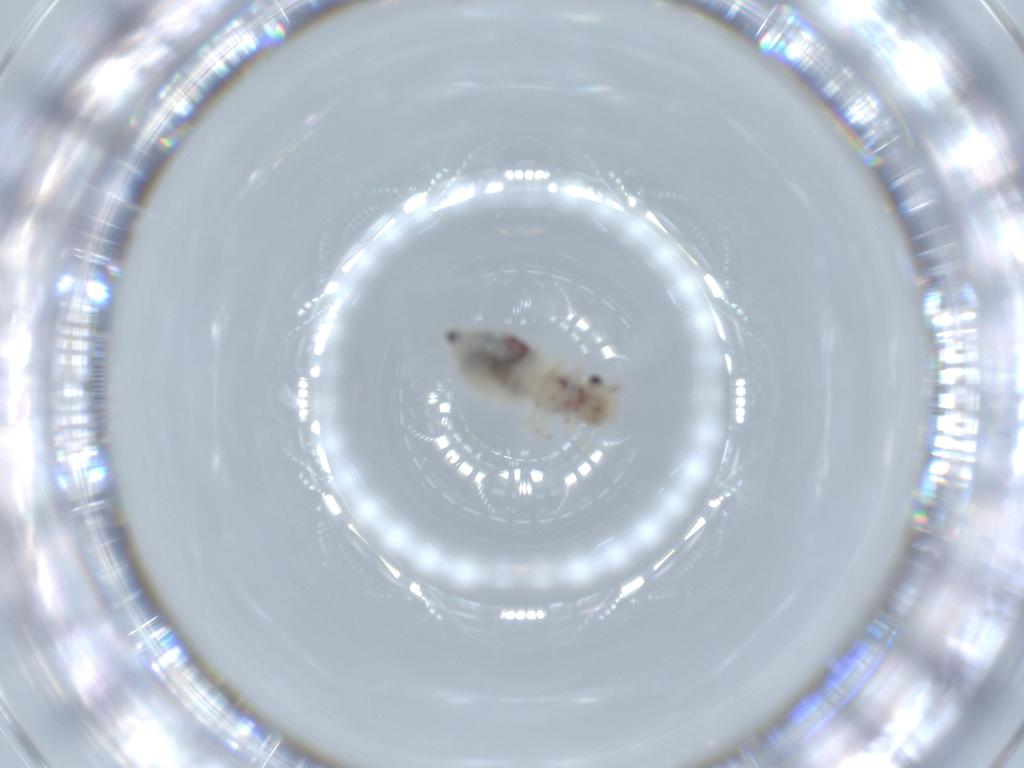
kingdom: Animalia
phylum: Arthropoda
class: Insecta
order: Psocodea
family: Caeciliusidae
